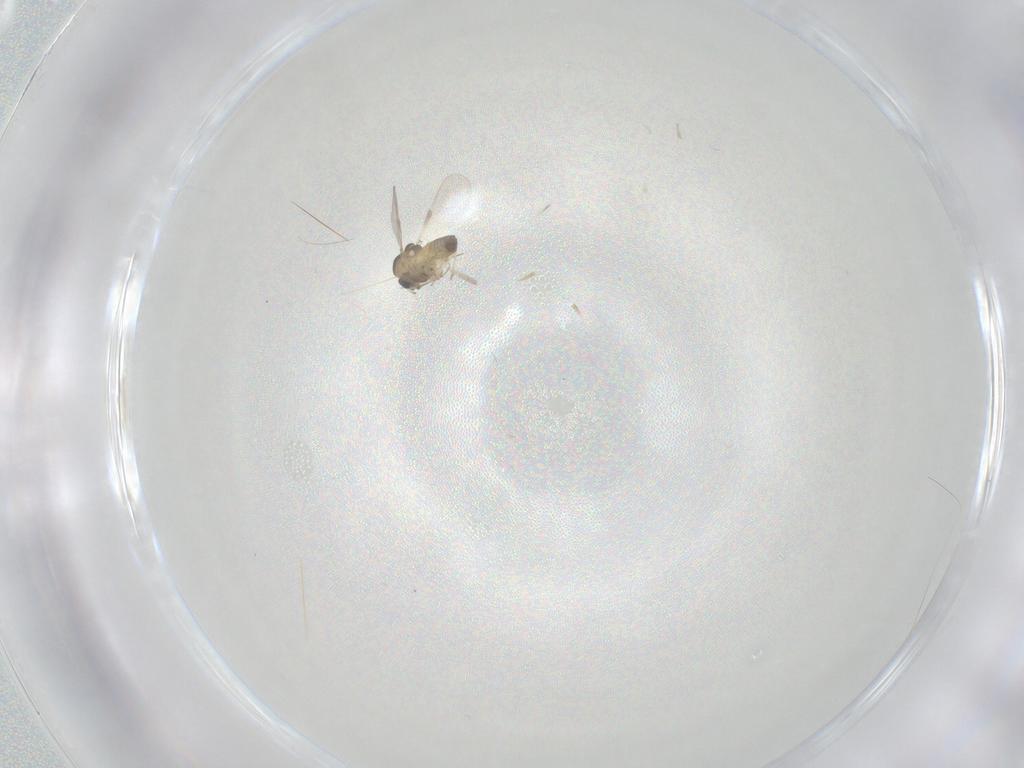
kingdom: Animalia
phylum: Arthropoda
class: Insecta
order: Diptera
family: Chironomidae
